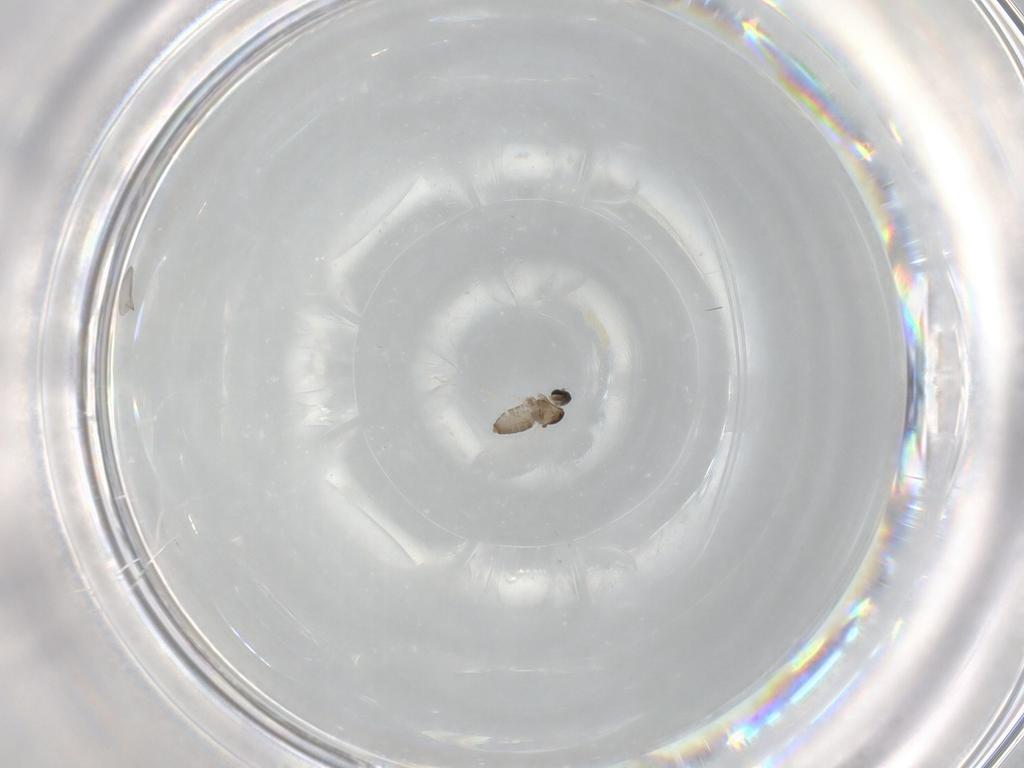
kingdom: Animalia
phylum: Arthropoda
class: Insecta
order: Diptera
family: Cecidomyiidae
